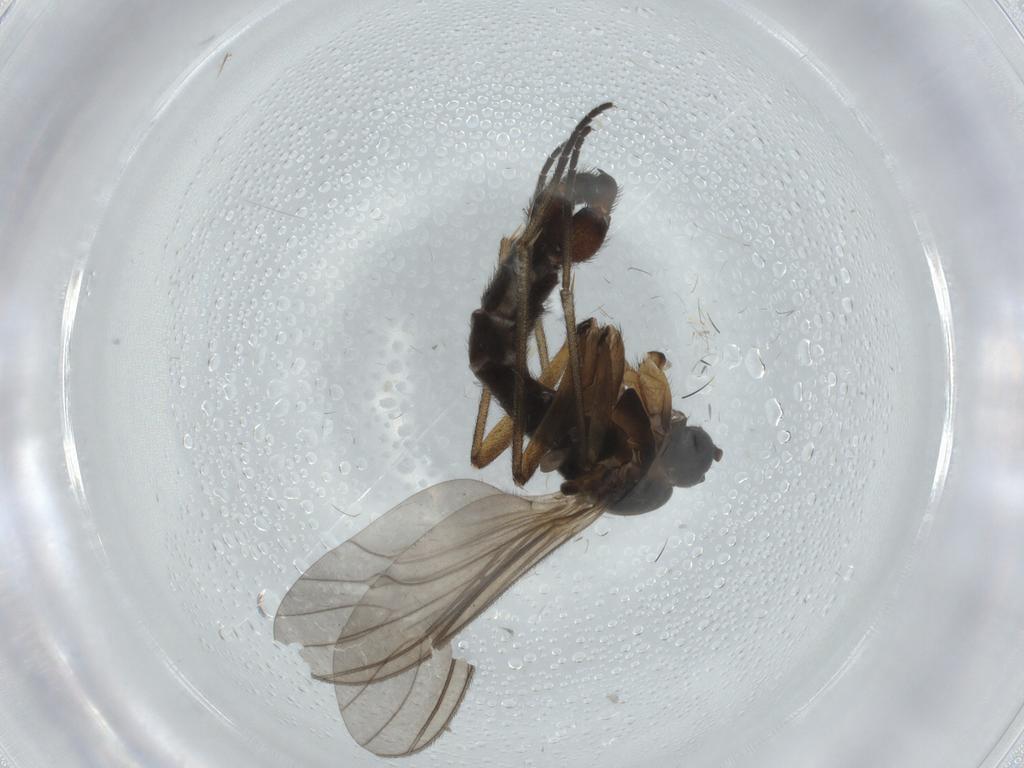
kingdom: Animalia
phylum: Arthropoda
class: Insecta
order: Diptera
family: Sciaridae
